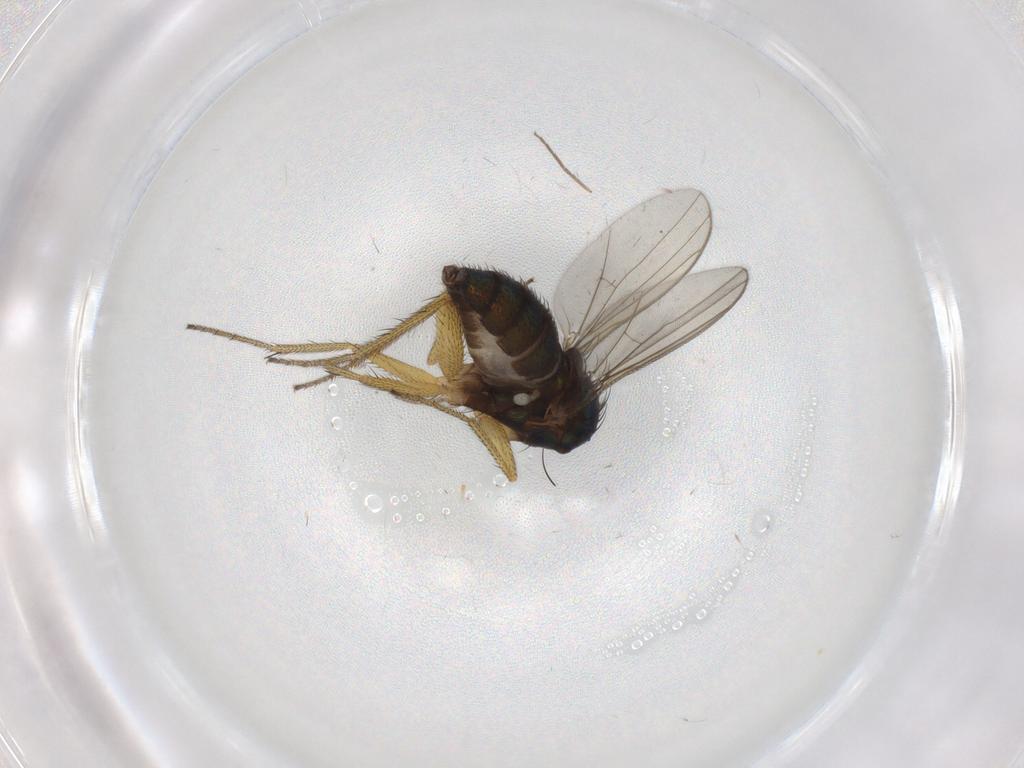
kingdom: Animalia
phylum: Arthropoda
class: Insecta
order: Diptera
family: Dolichopodidae
